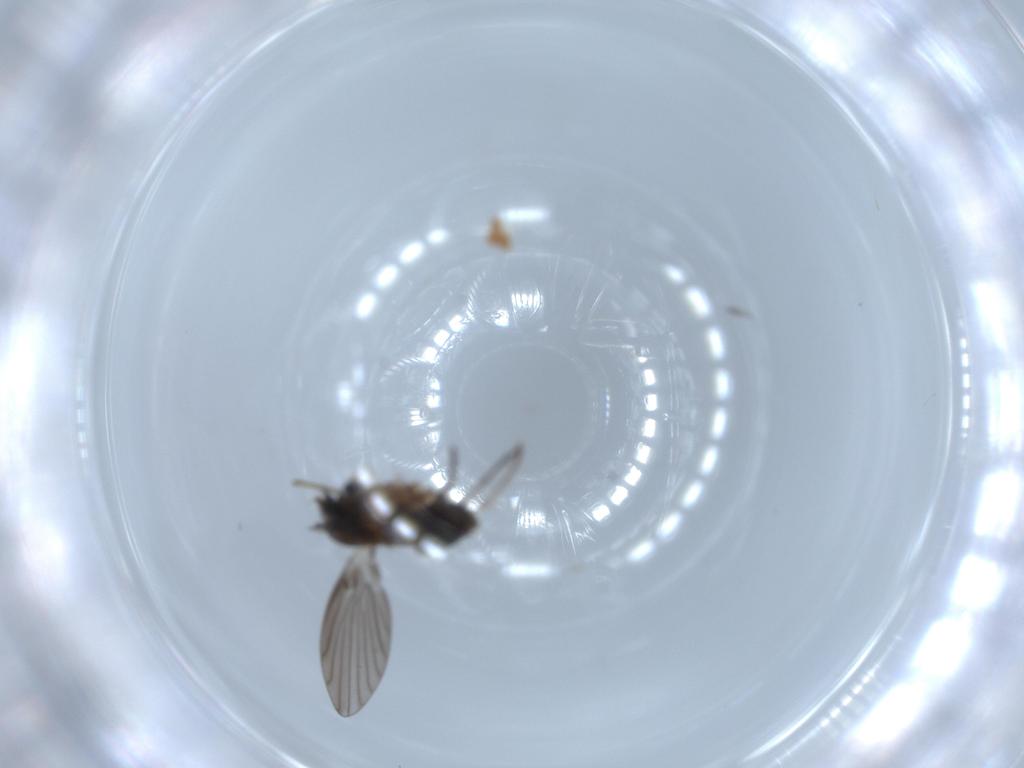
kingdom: Animalia
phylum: Arthropoda
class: Insecta
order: Diptera
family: Psychodidae
